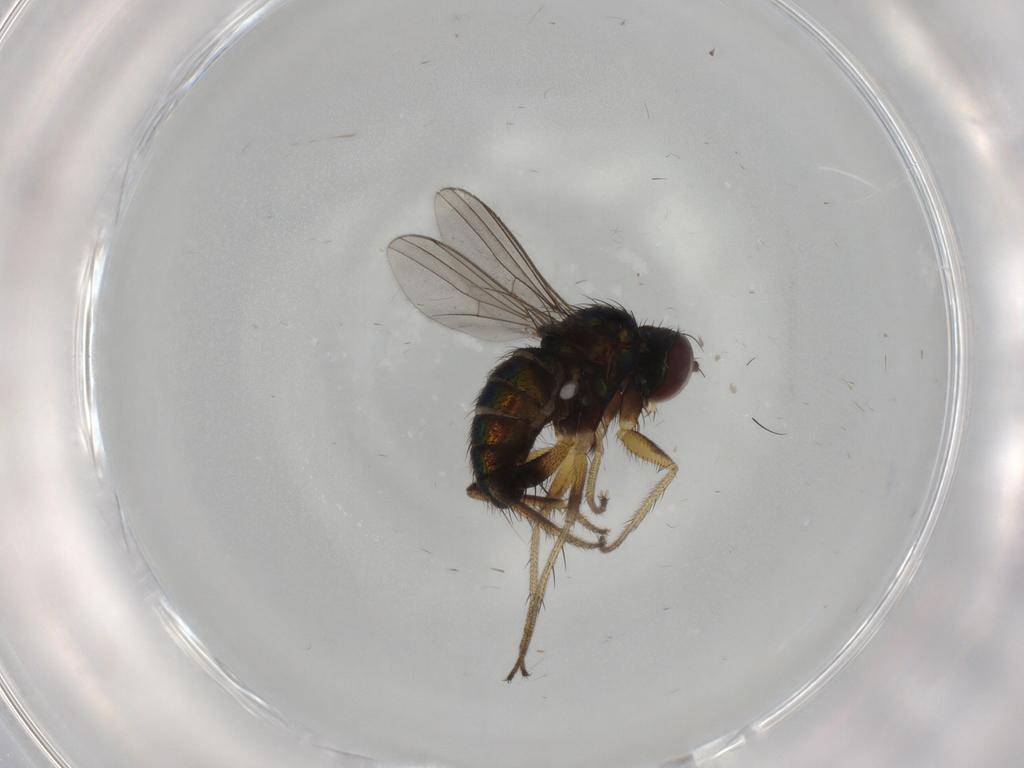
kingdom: Animalia
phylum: Arthropoda
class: Insecta
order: Diptera
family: Dolichopodidae
